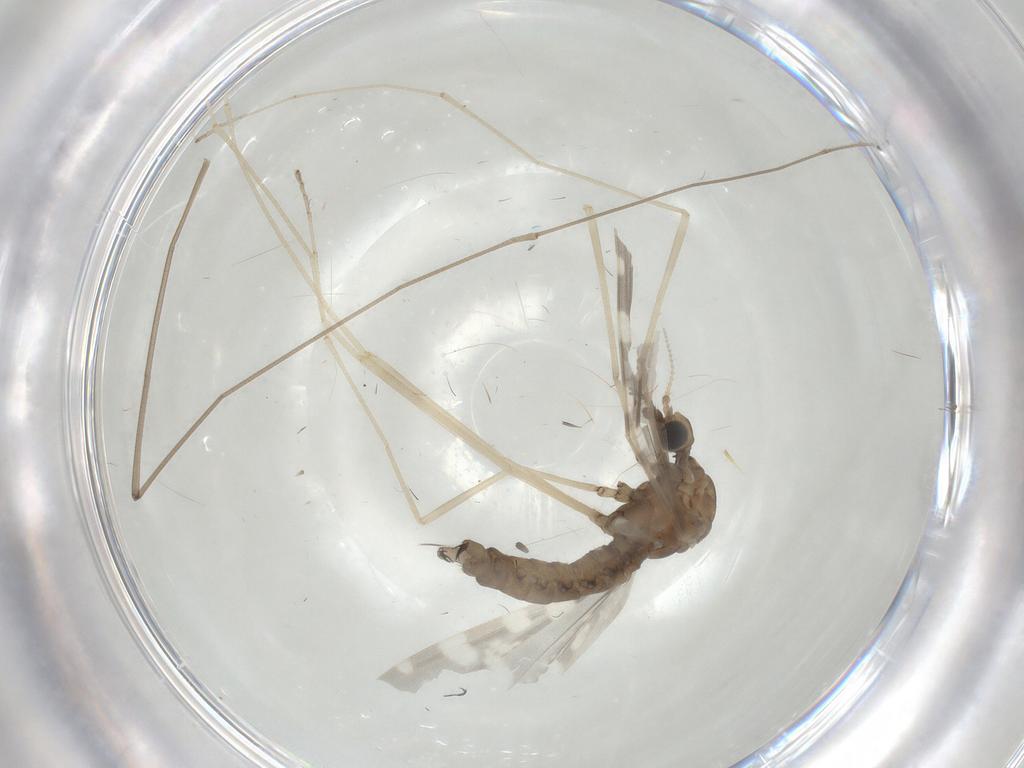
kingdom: Animalia
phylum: Arthropoda
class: Insecta
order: Diptera
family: Limoniidae
